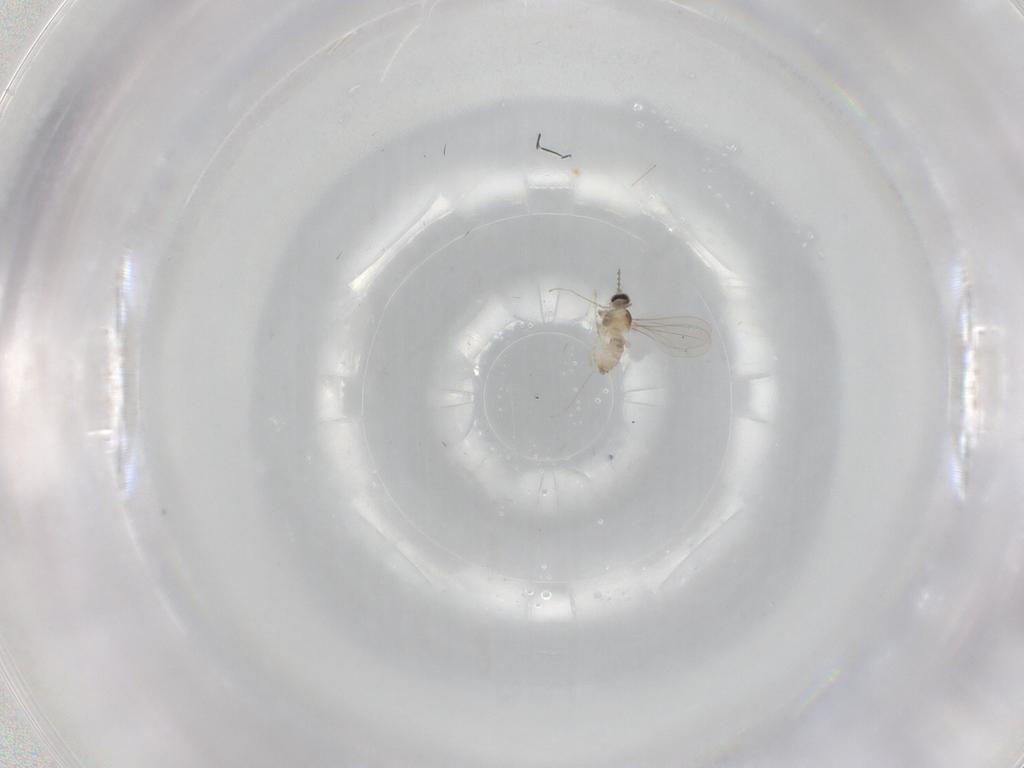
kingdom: Animalia
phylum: Arthropoda
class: Insecta
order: Diptera
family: Cecidomyiidae
